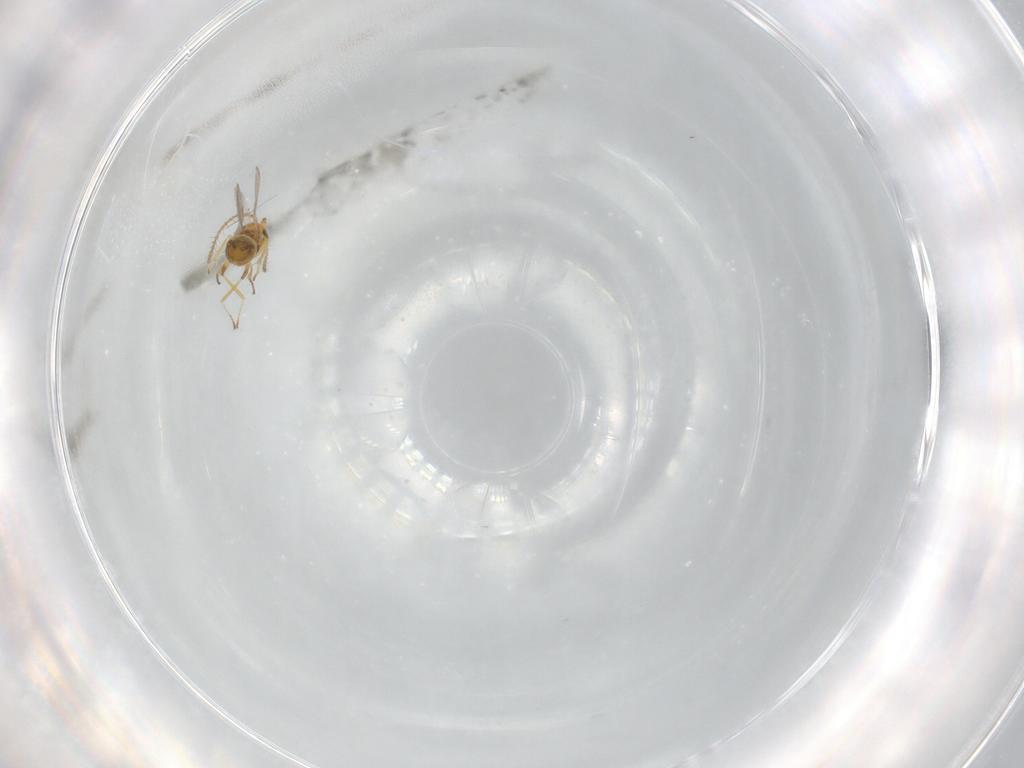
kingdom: Animalia
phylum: Arthropoda
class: Insecta
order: Hymenoptera
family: Encyrtidae
